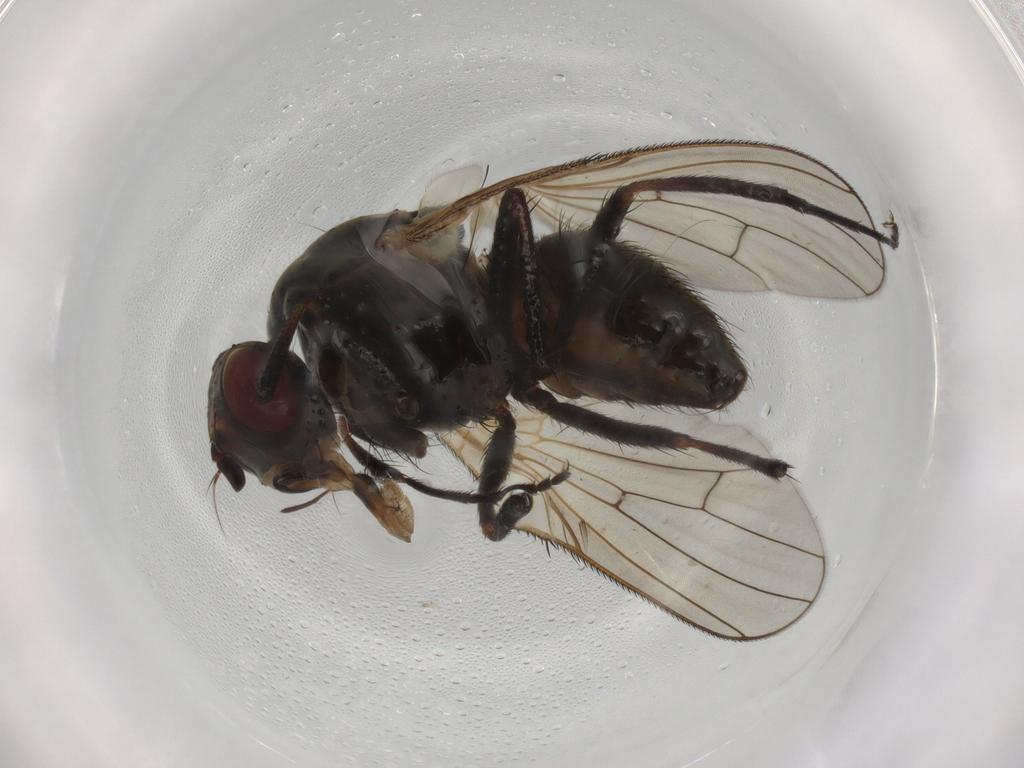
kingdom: Animalia
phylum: Arthropoda
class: Insecta
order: Diptera
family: Anthomyiidae
